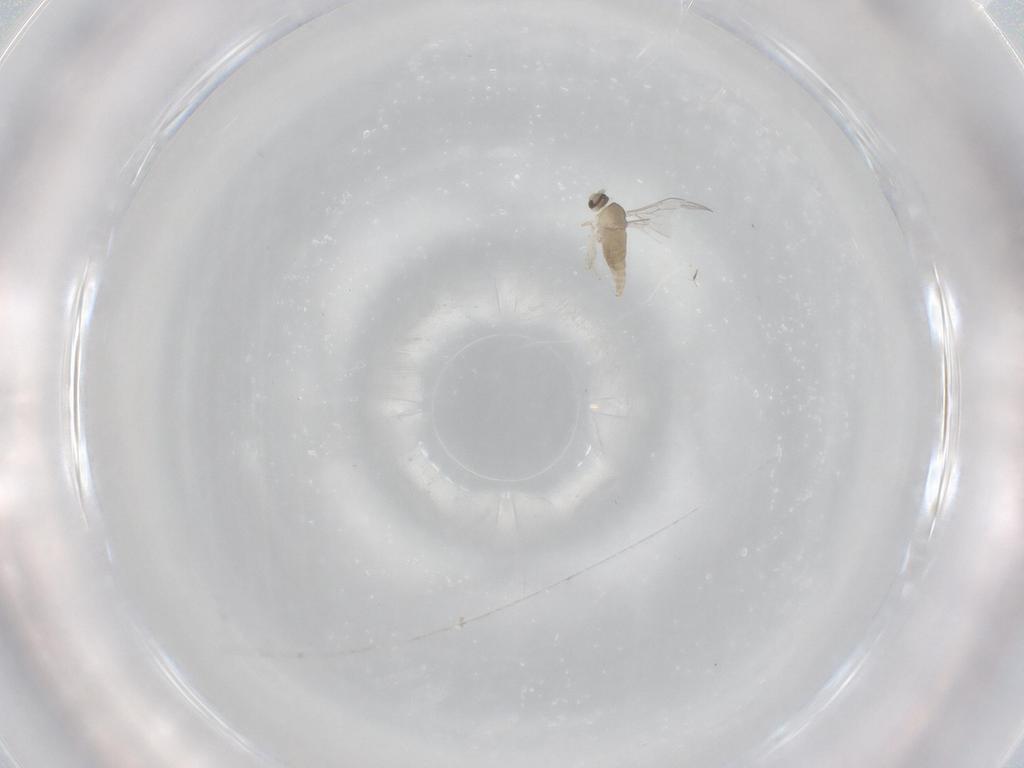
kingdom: Animalia
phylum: Arthropoda
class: Insecta
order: Diptera
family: Cecidomyiidae
